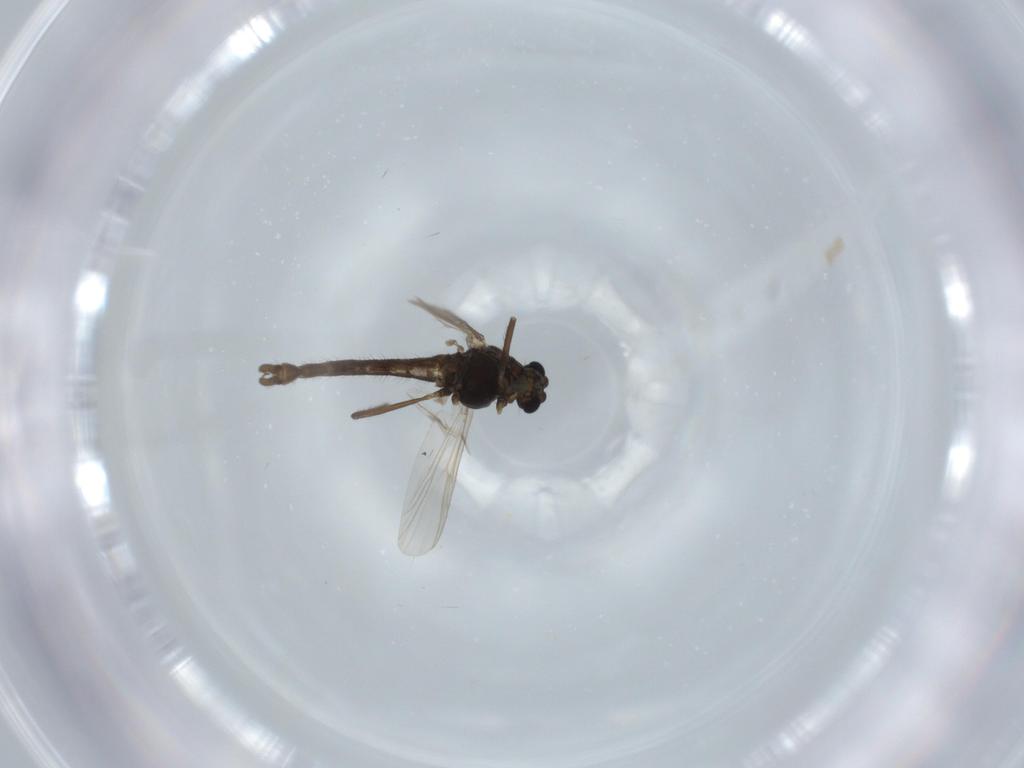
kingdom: Animalia
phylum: Arthropoda
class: Insecta
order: Diptera
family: Chironomidae
